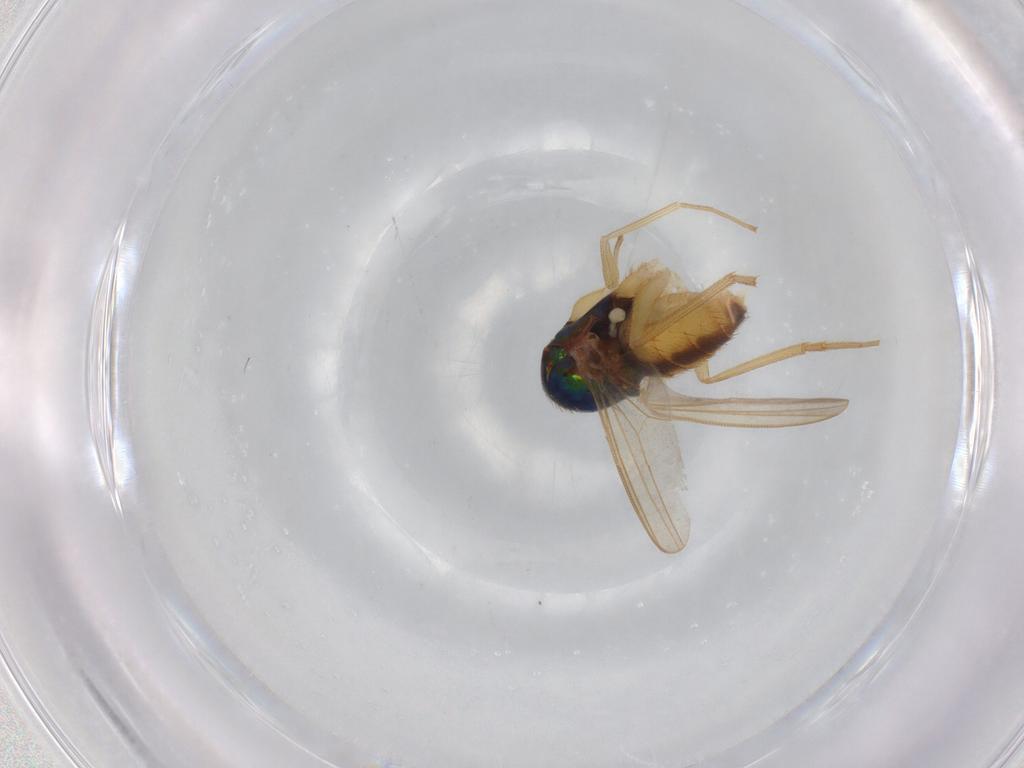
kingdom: Animalia
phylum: Arthropoda
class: Insecta
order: Diptera
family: Dolichopodidae
